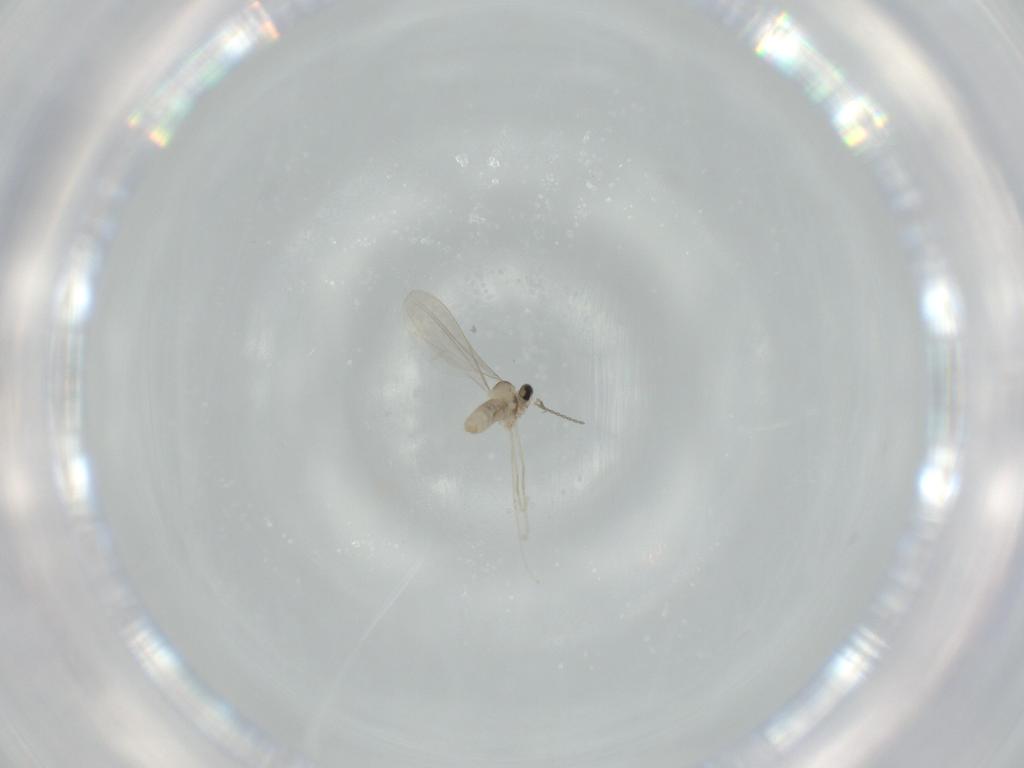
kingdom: Animalia
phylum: Arthropoda
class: Insecta
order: Diptera
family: Cecidomyiidae
